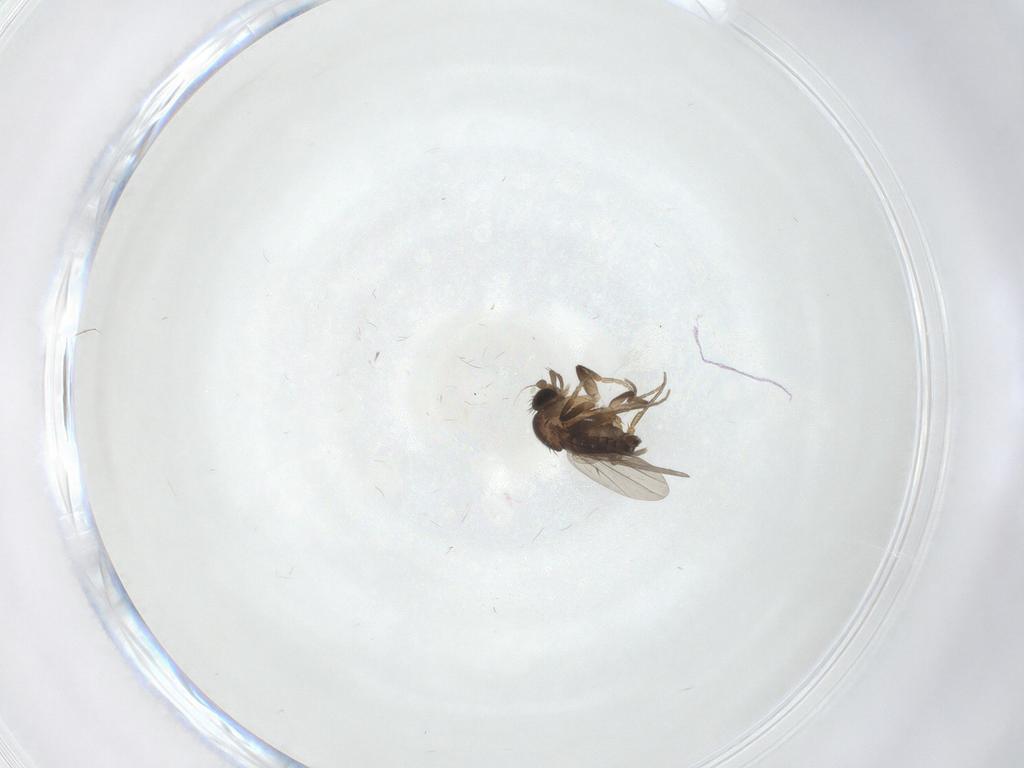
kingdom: Animalia
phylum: Arthropoda
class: Insecta
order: Diptera
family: Phoridae
